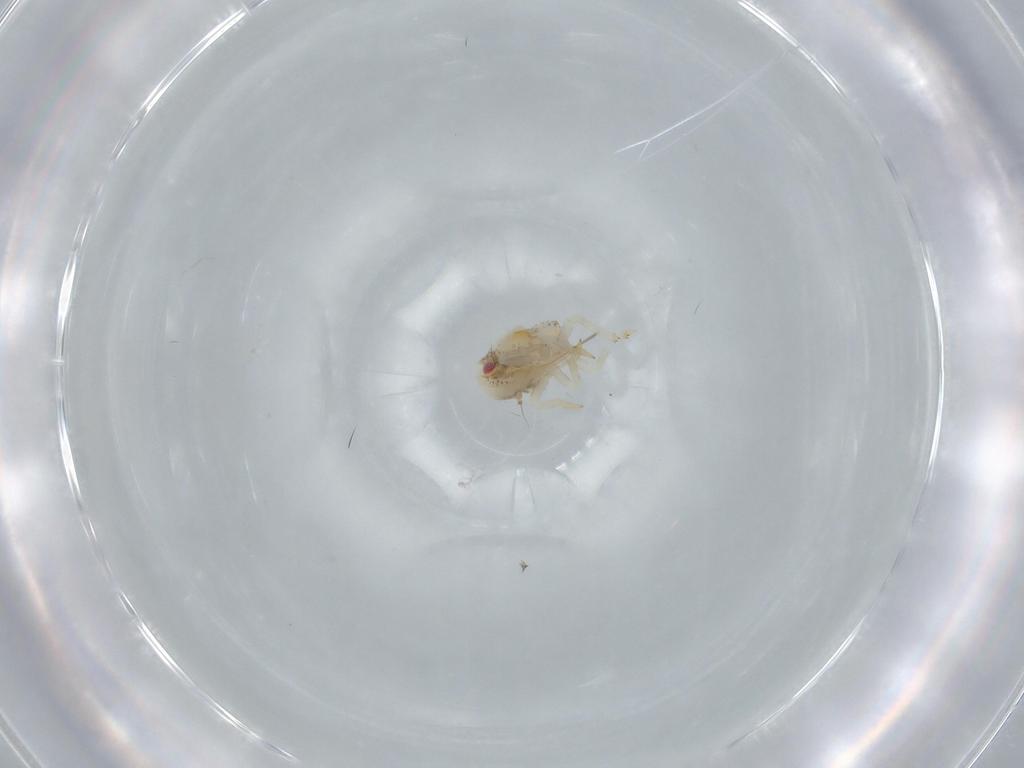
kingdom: Animalia
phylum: Arthropoda
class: Insecta
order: Hemiptera
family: Acanaloniidae
